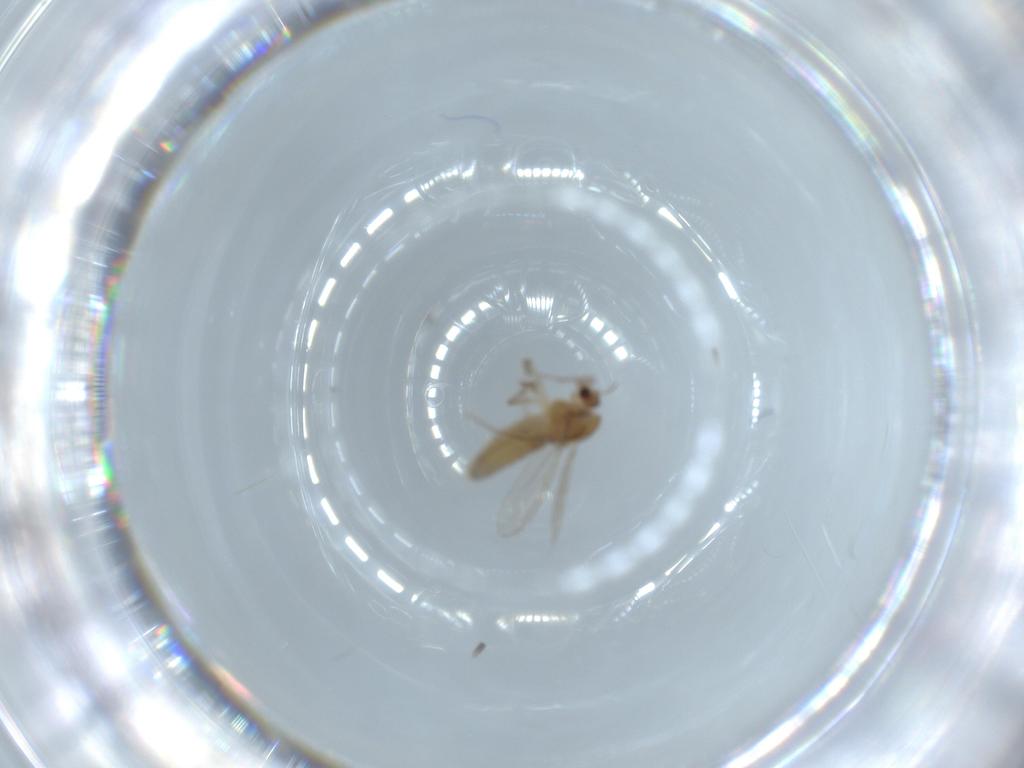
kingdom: Animalia
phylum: Arthropoda
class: Insecta
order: Diptera
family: Chironomidae
